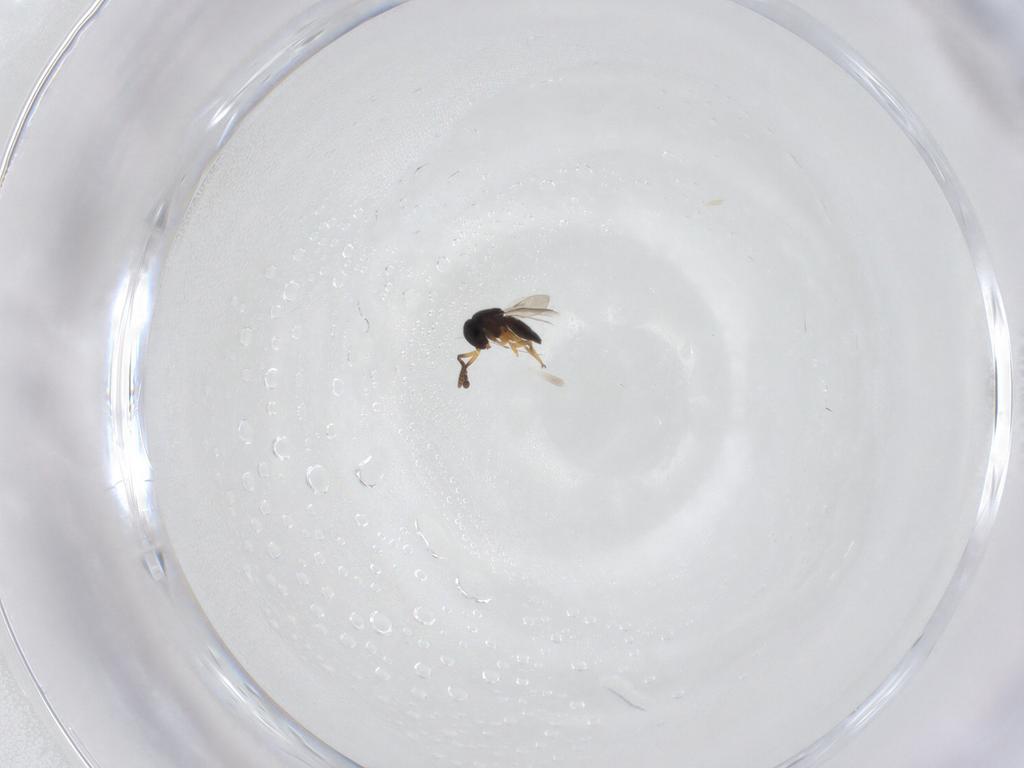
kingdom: Animalia
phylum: Arthropoda
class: Insecta
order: Hymenoptera
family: Scelionidae
